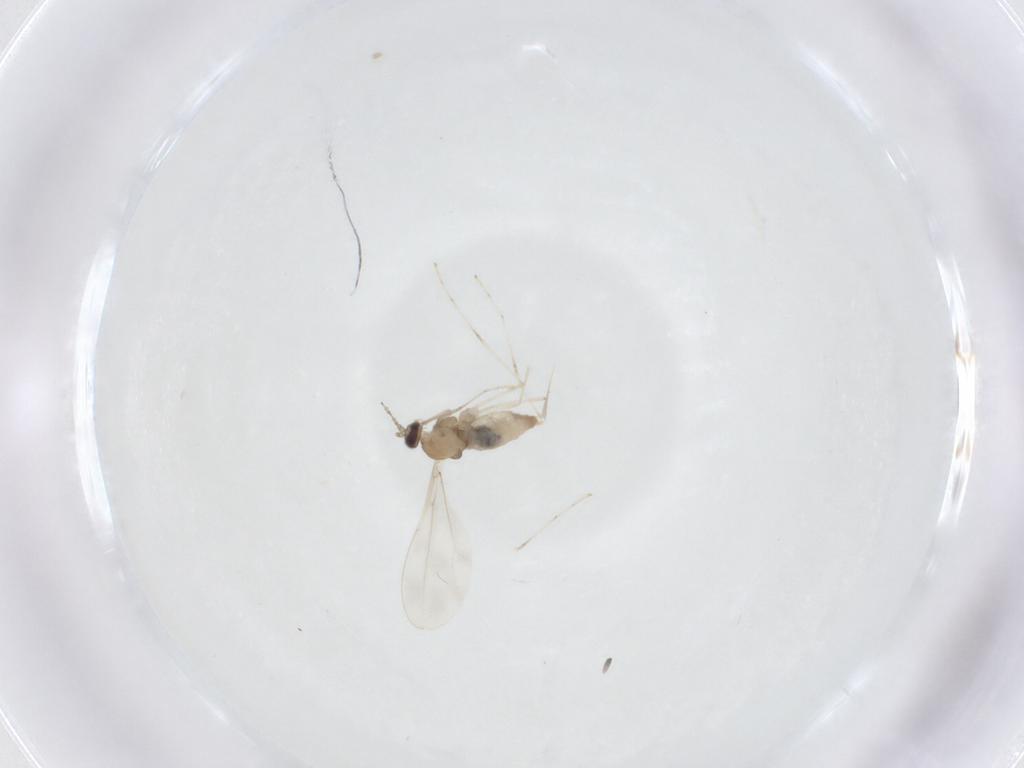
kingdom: Animalia
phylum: Arthropoda
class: Insecta
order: Diptera
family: Cecidomyiidae
